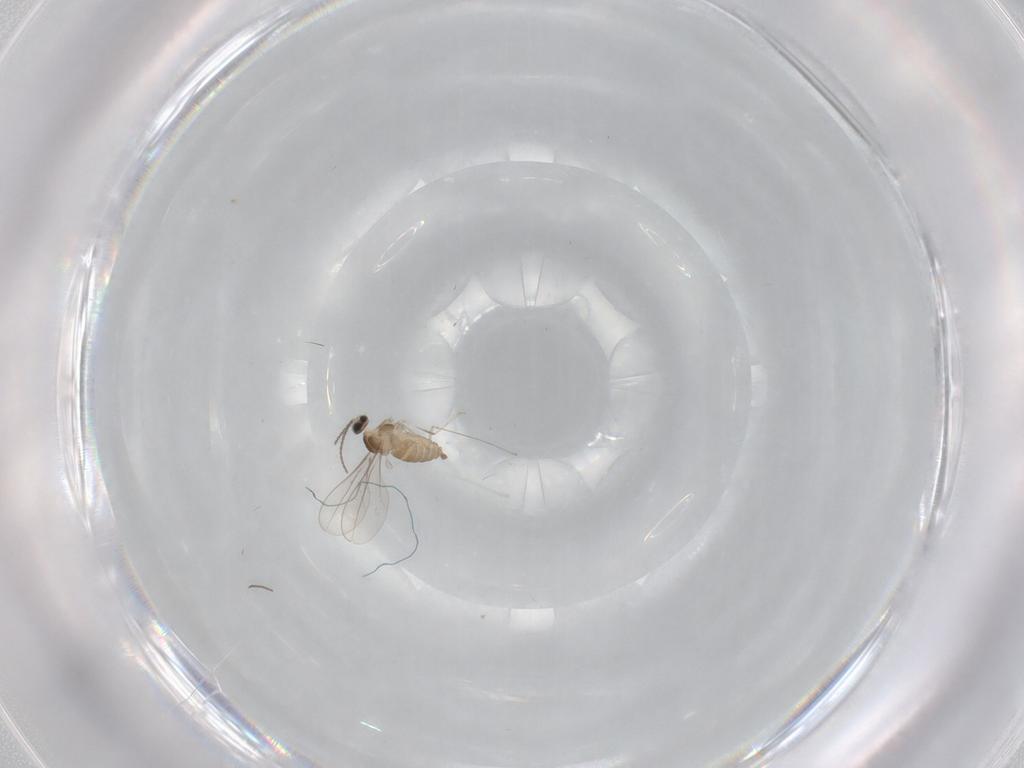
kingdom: Animalia
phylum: Arthropoda
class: Insecta
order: Diptera
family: Cecidomyiidae
